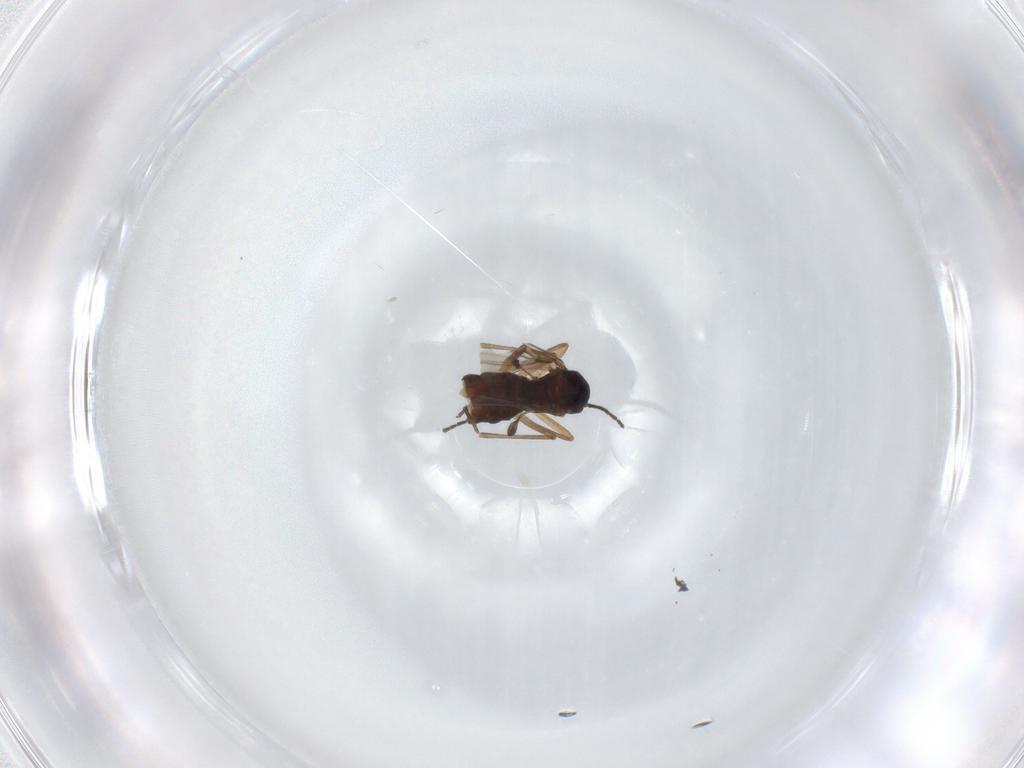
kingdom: Animalia
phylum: Arthropoda
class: Insecta
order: Diptera
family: Sciaridae
